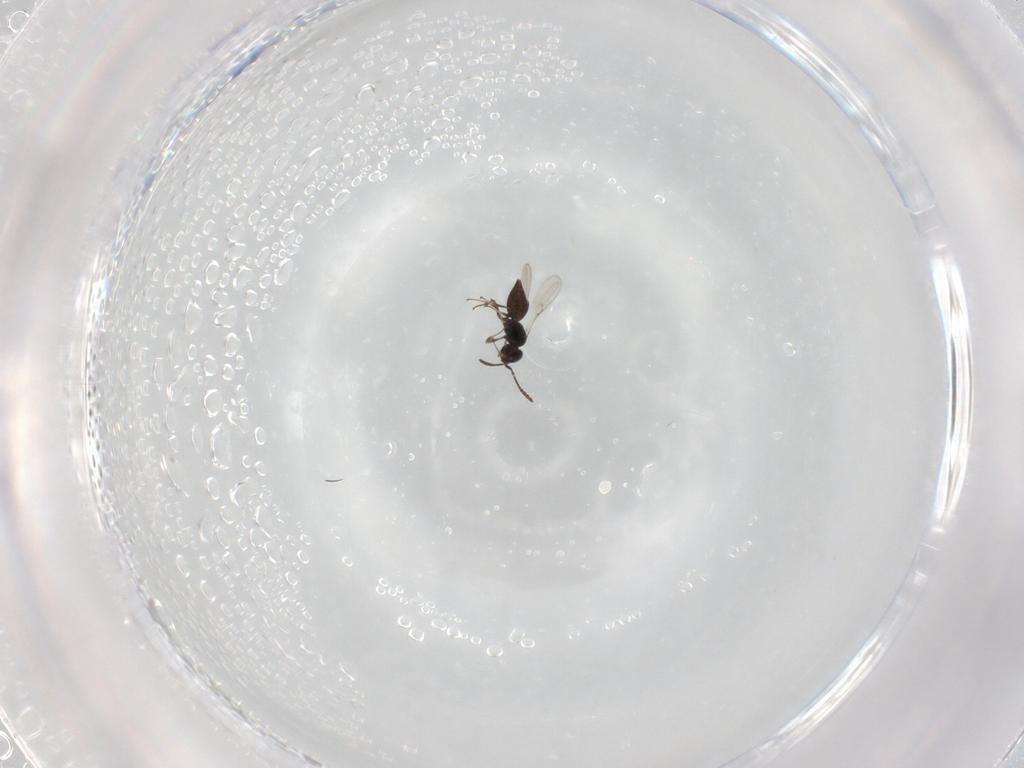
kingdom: Animalia
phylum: Arthropoda
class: Insecta
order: Hymenoptera
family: Scelionidae
